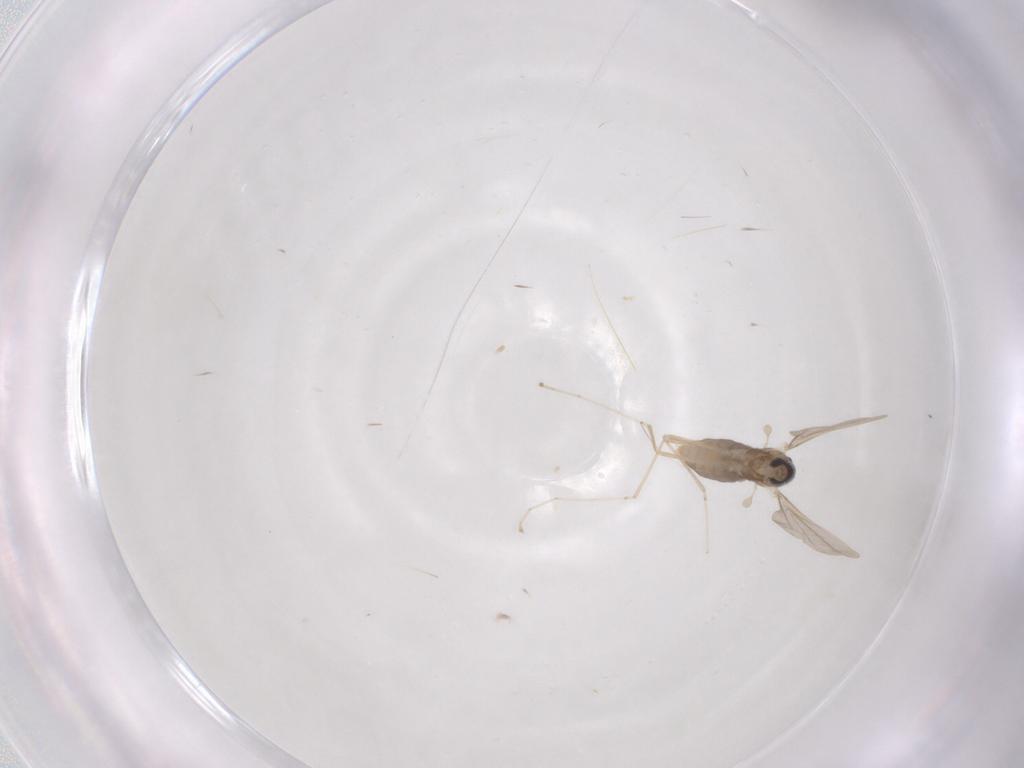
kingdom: Animalia
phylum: Arthropoda
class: Insecta
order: Diptera
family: Cecidomyiidae
